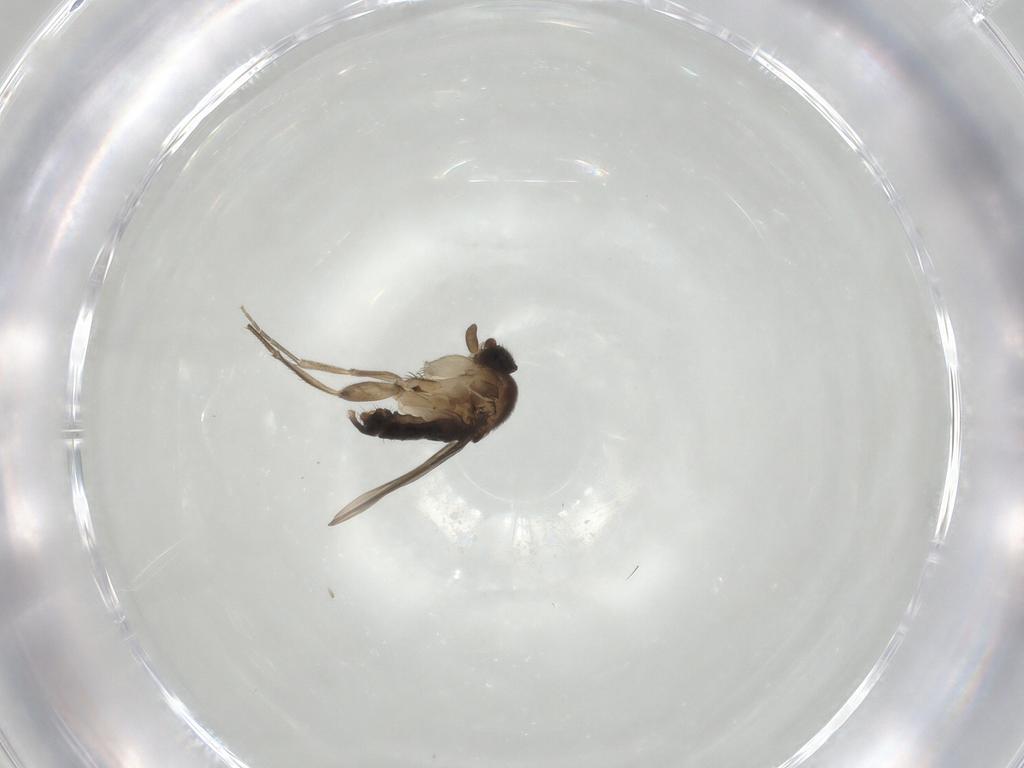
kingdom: Animalia
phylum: Arthropoda
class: Insecta
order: Diptera
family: Phoridae
